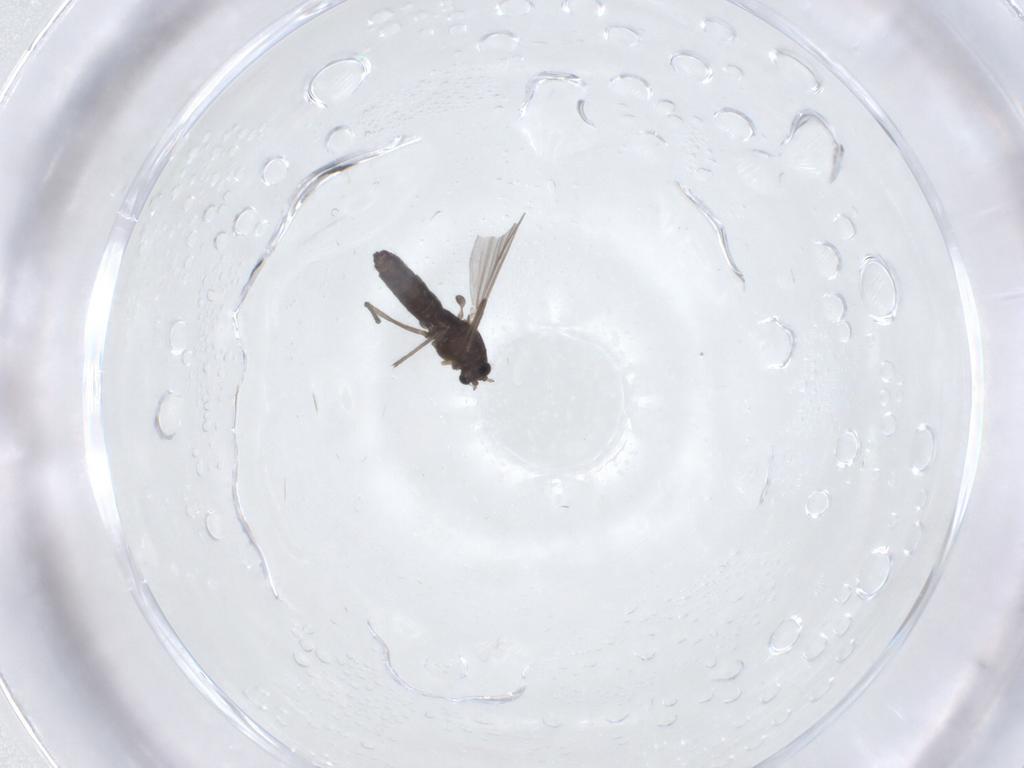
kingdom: Animalia
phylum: Arthropoda
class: Insecta
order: Diptera
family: Chironomidae
